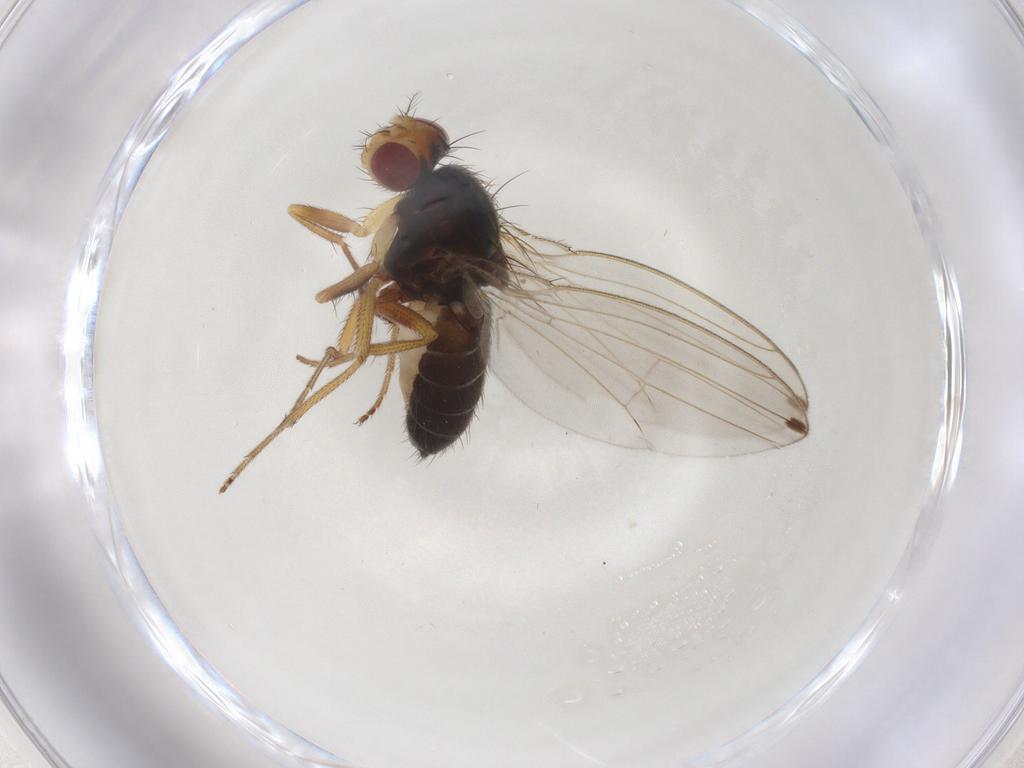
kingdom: Animalia
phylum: Arthropoda
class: Insecta
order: Diptera
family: Drosophilidae
